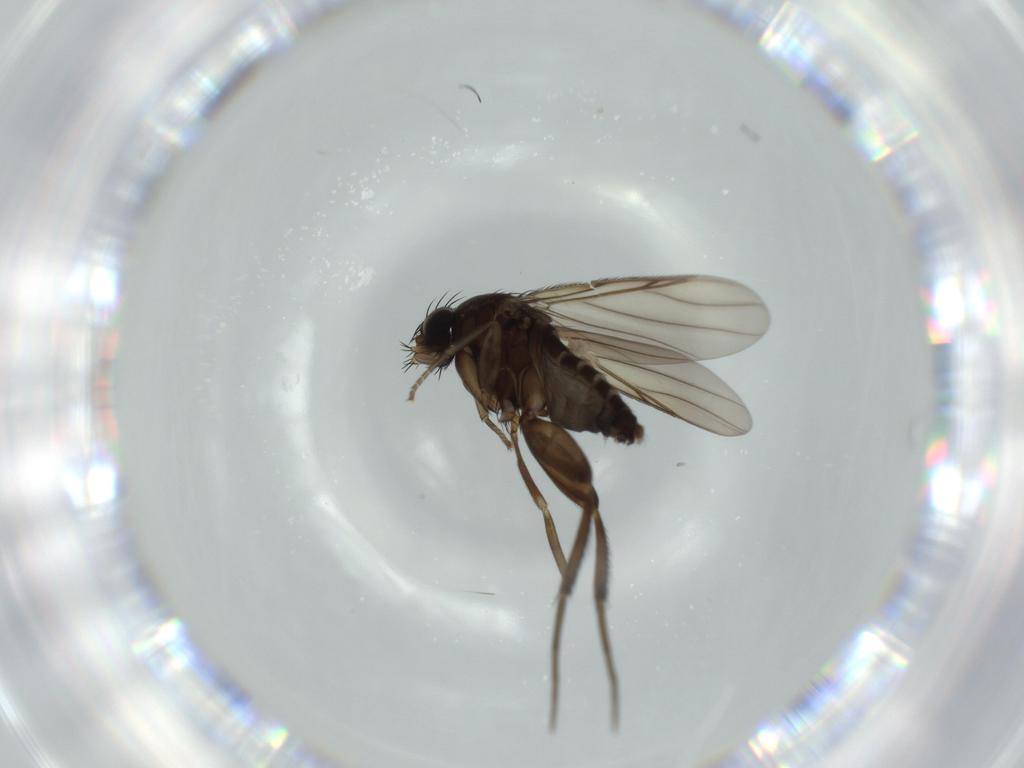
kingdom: Animalia
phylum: Arthropoda
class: Insecta
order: Diptera
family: Phoridae
